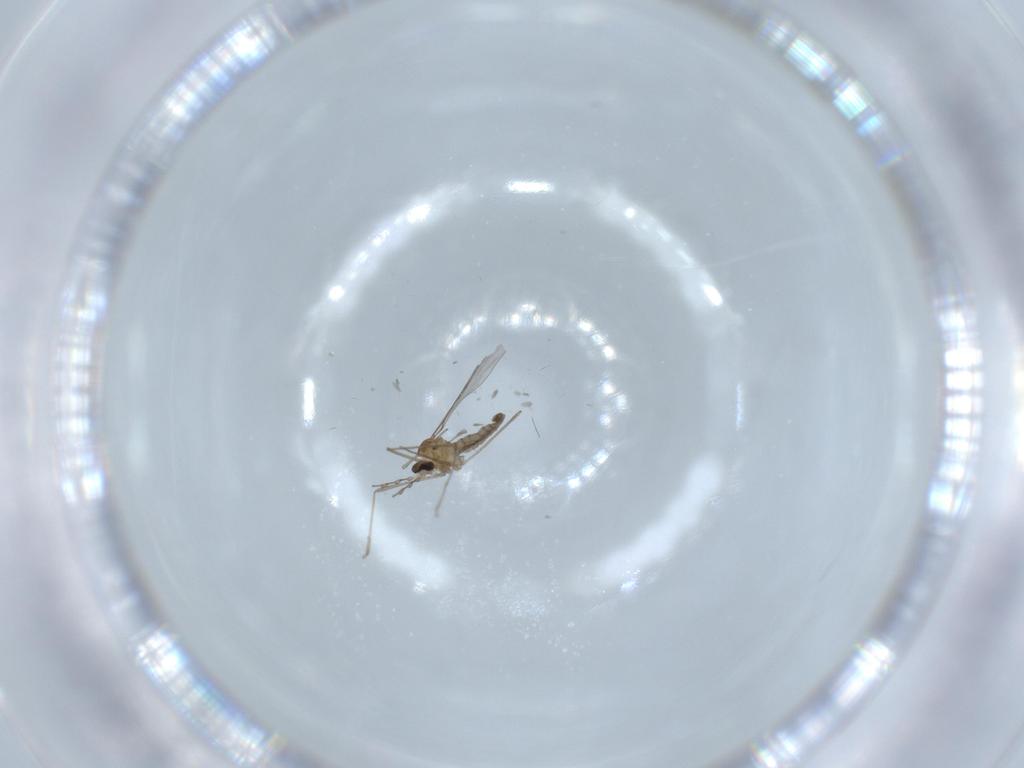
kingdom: Animalia
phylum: Arthropoda
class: Insecta
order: Diptera
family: Cecidomyiidae
